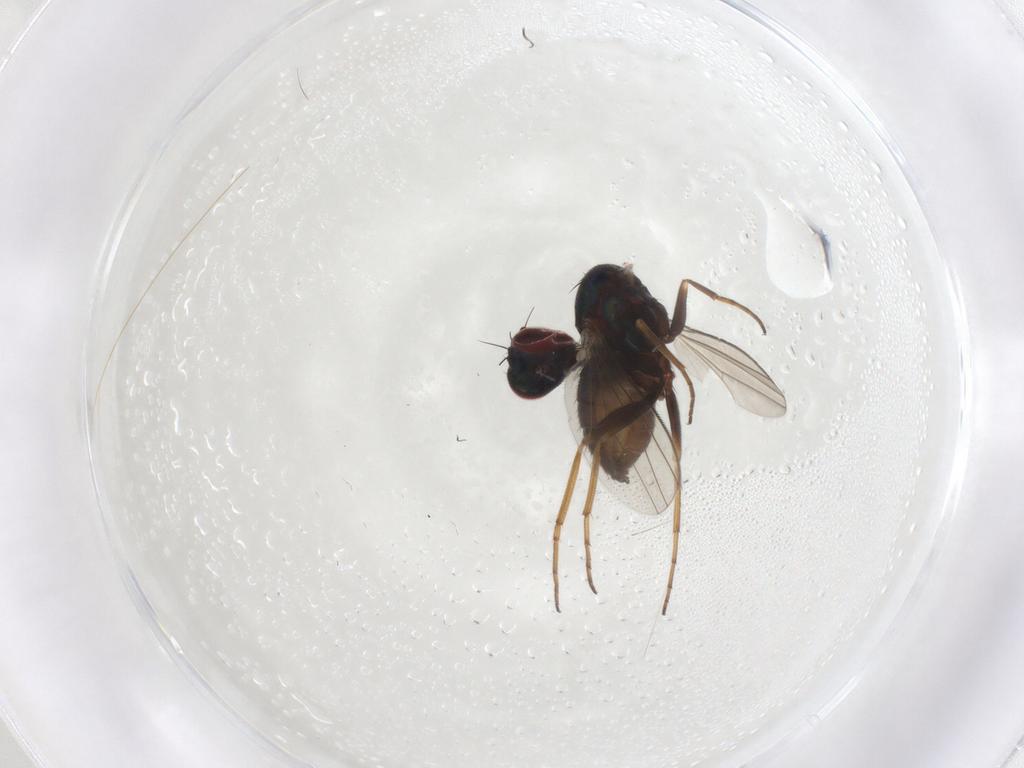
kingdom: Animalia
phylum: Arthropoda
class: Insecta
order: Diptera
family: Dolichopodidae
